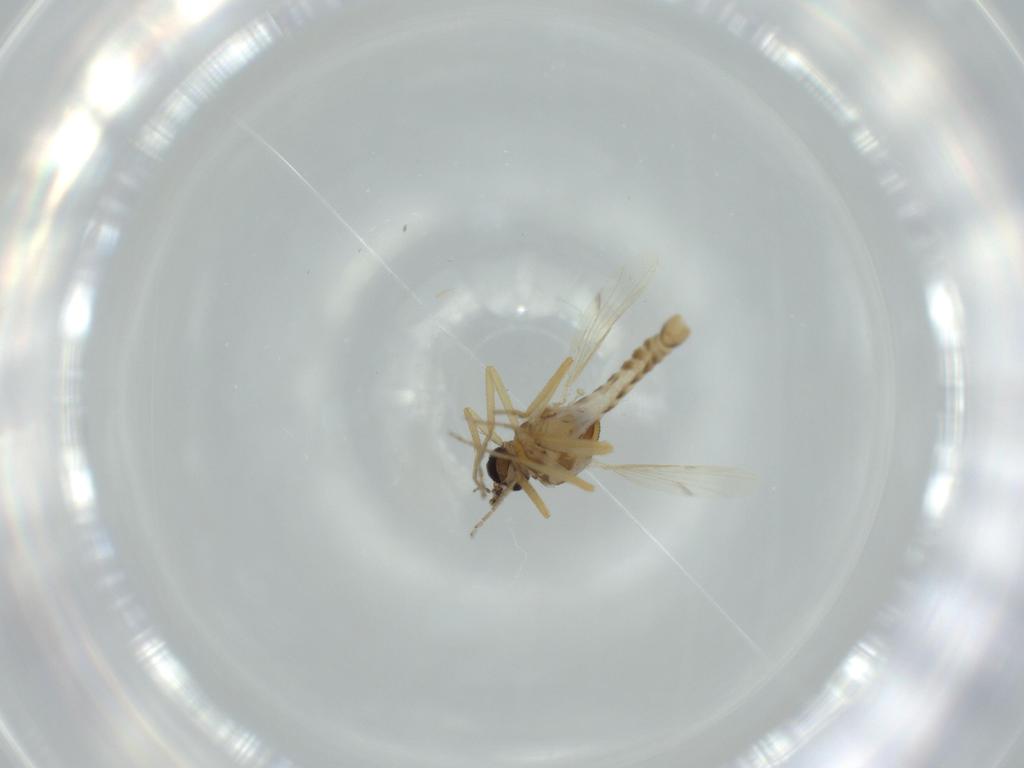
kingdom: Animalia
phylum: Arthropoda
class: Insecta
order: Diptera
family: Ceratopogonidae
